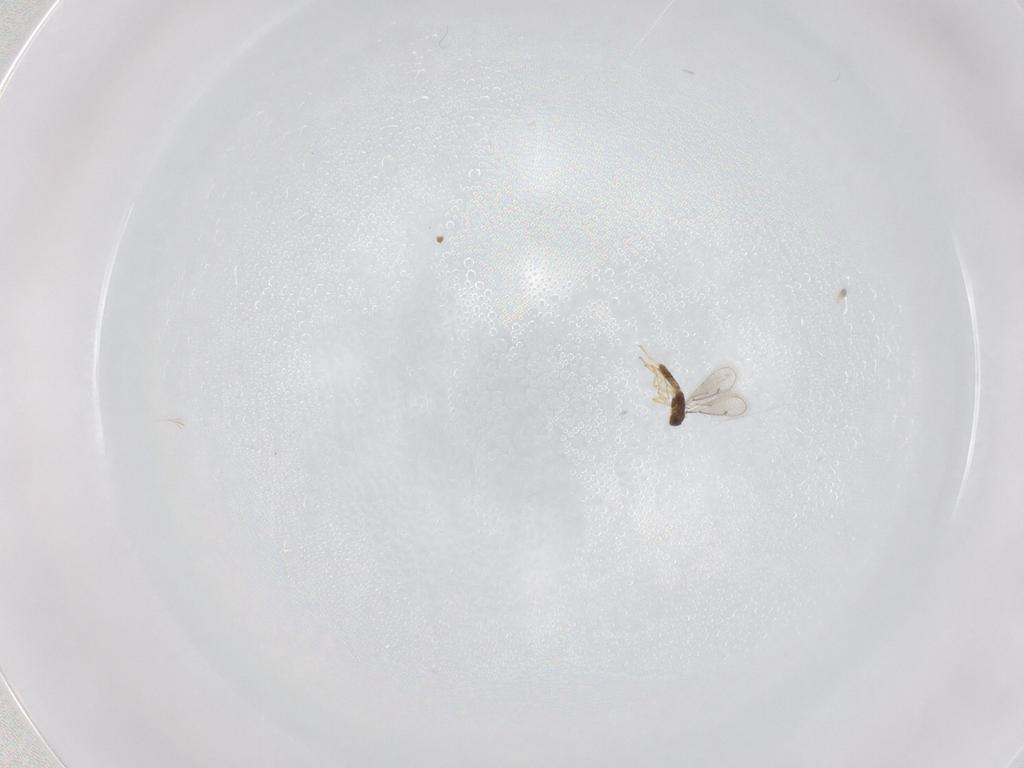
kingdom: Animalia
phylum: Arthropoda
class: Insecta
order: Hymenoptera
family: Eulophidae
